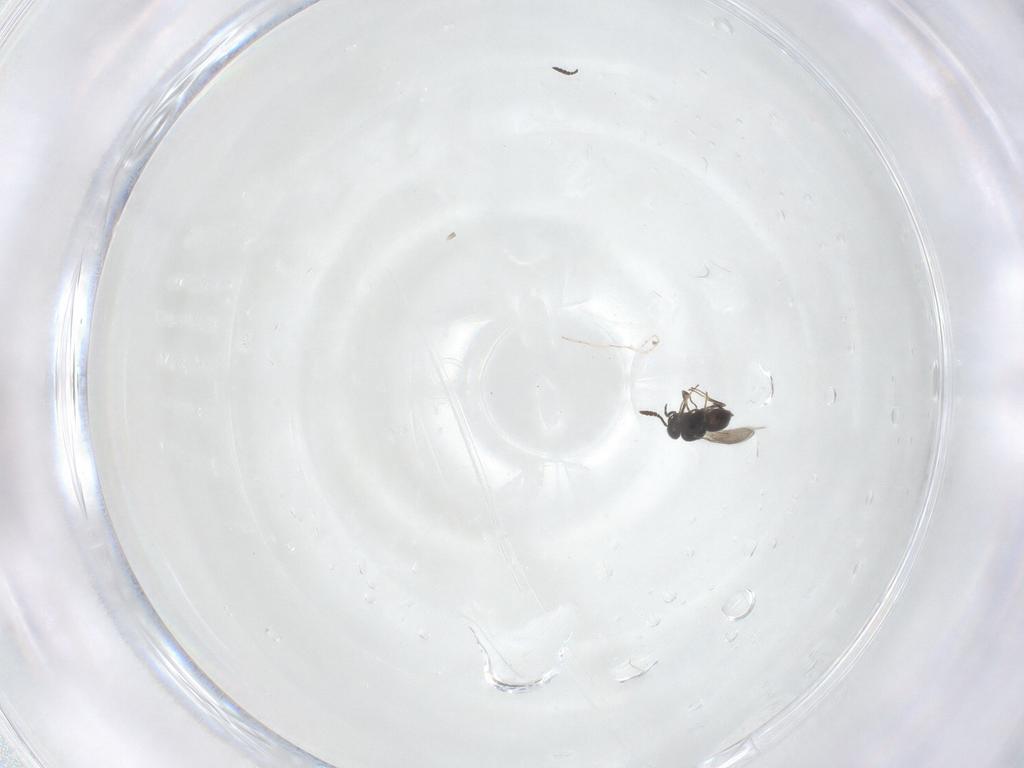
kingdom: Animalia
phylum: Arthropoda
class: Insecta
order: Hymenoptera
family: Scelionidae
